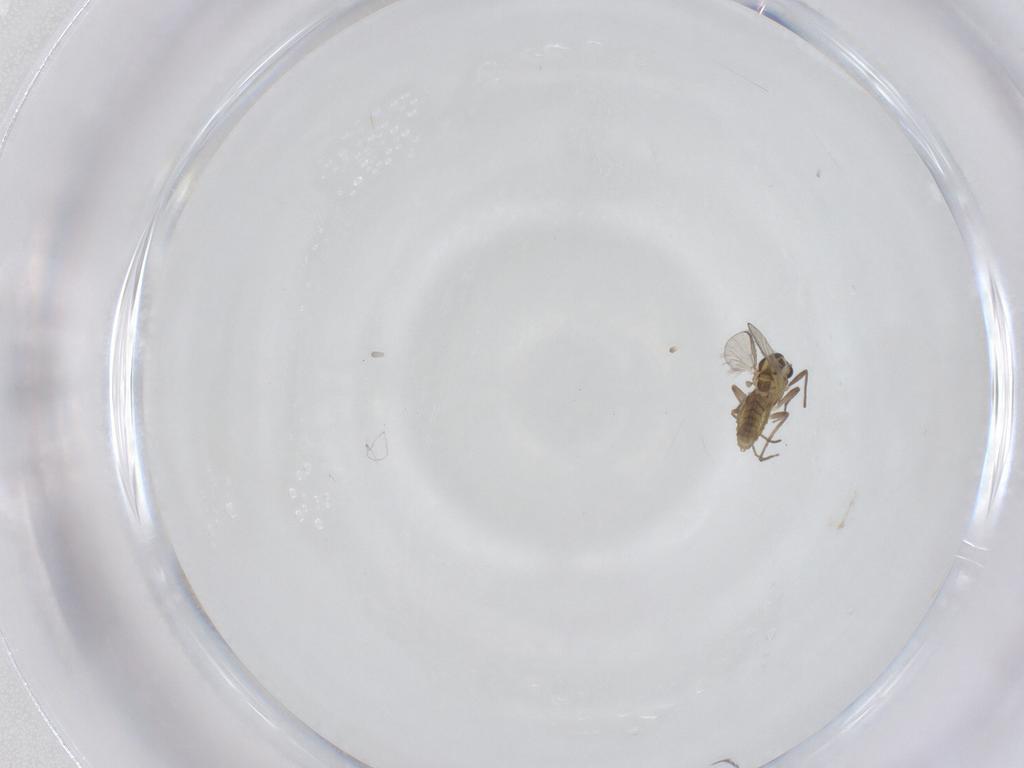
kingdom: Animalia
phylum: Arthropoda
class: Insecta
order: Diptera
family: Chironomidae
